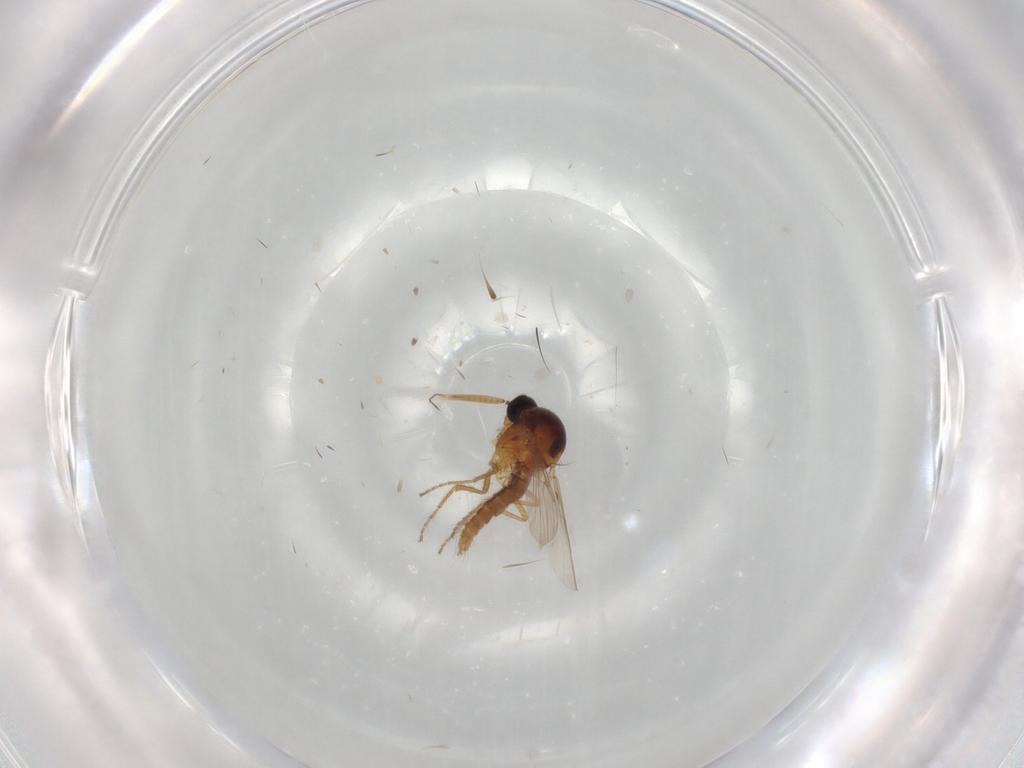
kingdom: Animalia
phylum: Arthropoda
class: Insecta
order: Diptera
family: Ceratopogonidae
